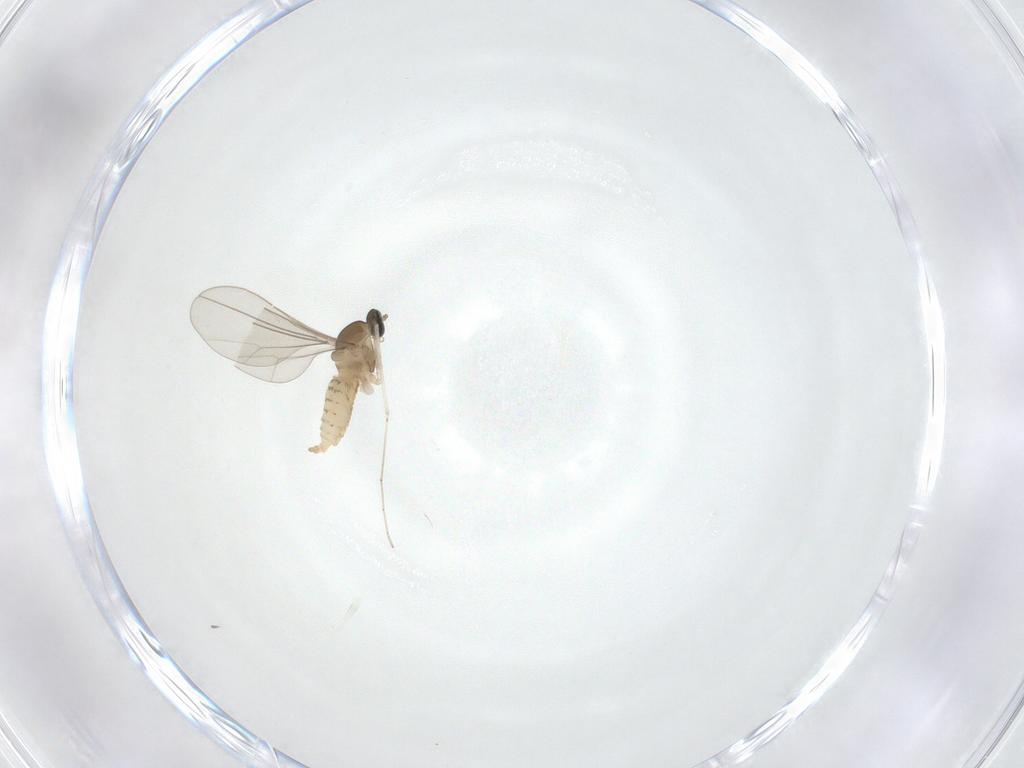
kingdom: Animalia
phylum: Arthropoda
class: Insecta
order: Diptera
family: Cecidomyiidae
